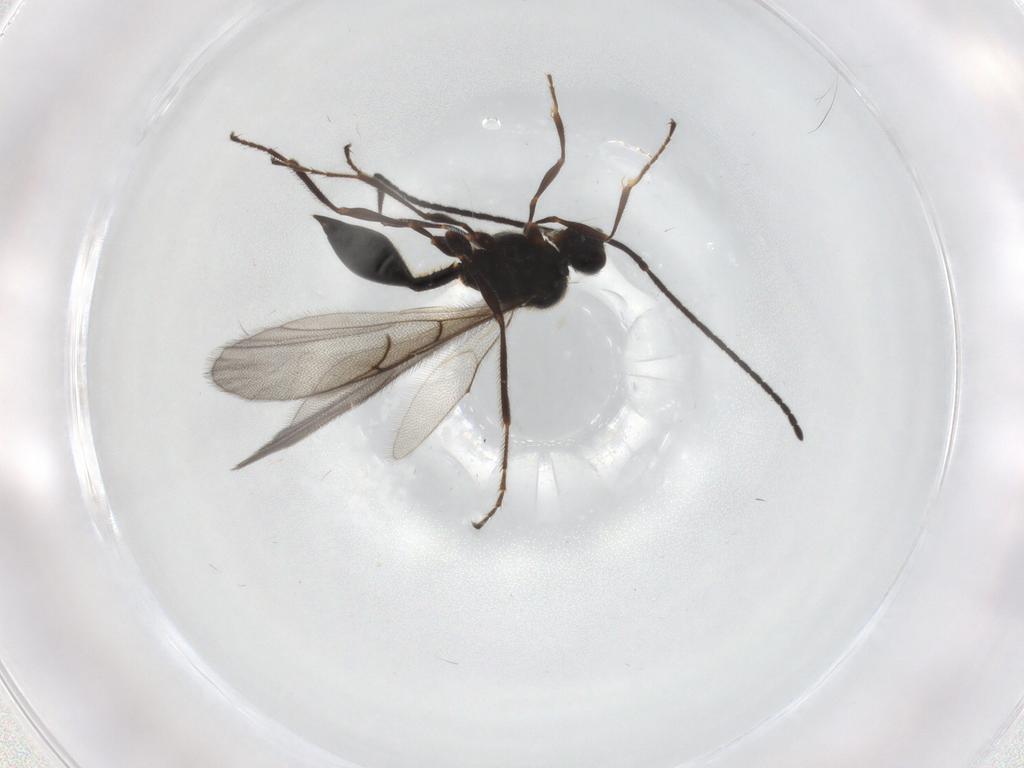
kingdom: Animalia
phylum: Arthropoda
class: Insecta
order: Hymenoptera
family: Diapriidae
